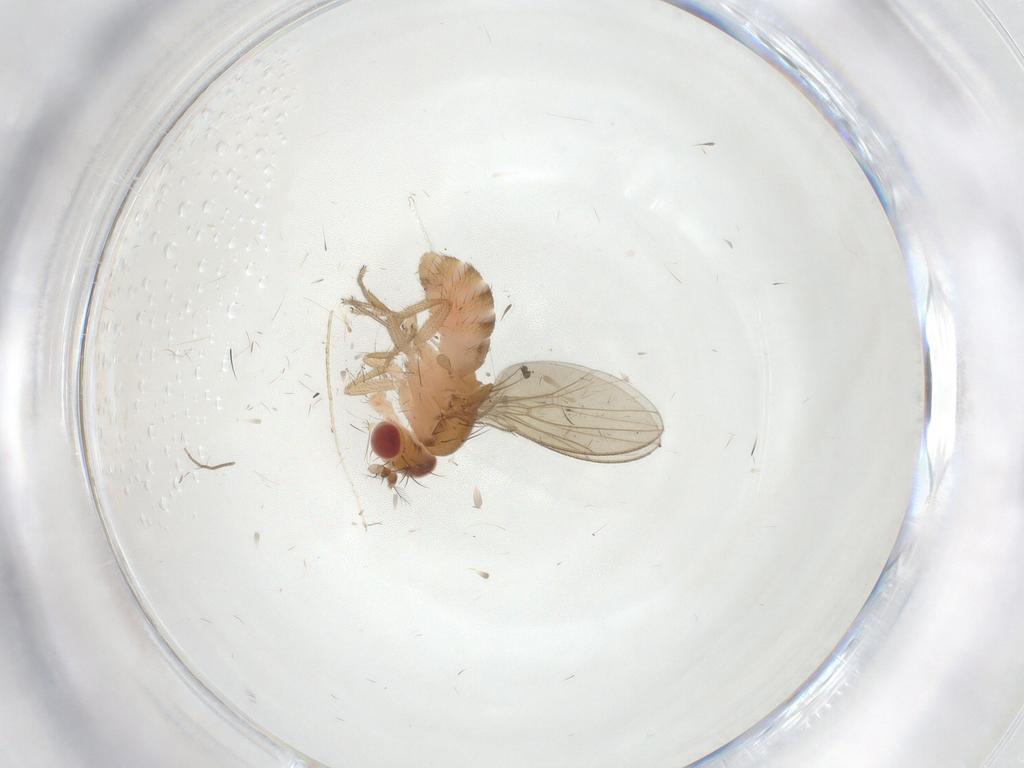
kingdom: Animalia
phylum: Arthropoda
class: Insecta
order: Diptera
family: Drosophilidae
